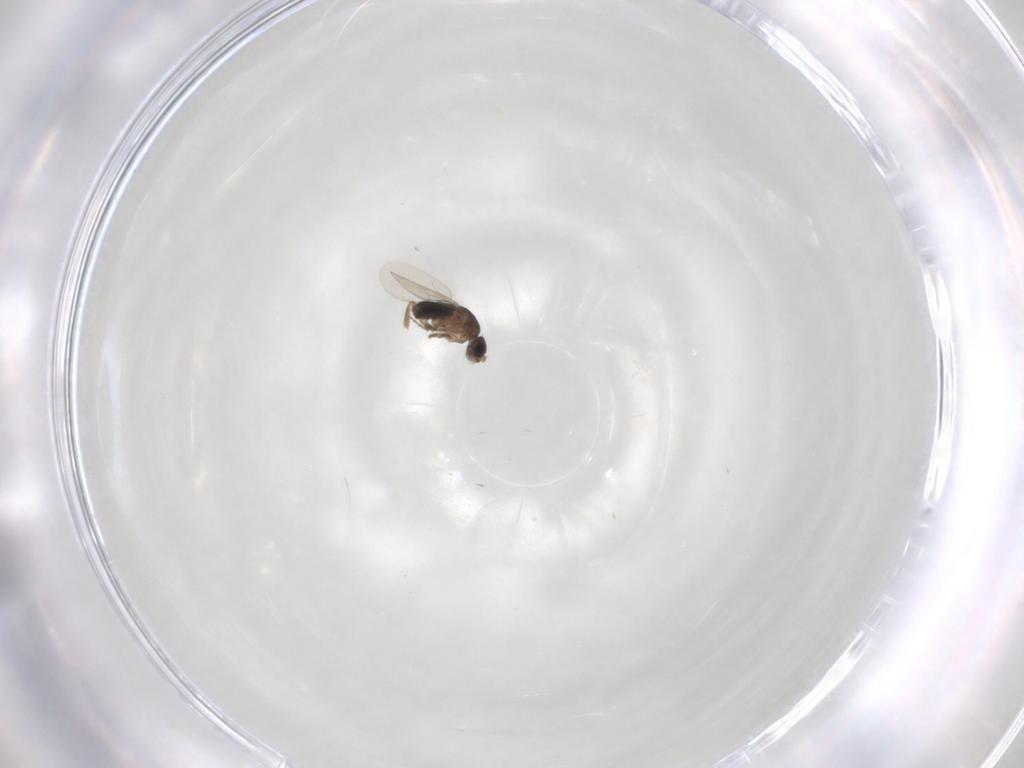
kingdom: Animalia
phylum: Arthropoda
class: Insecta
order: Diptera
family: Phoridae
